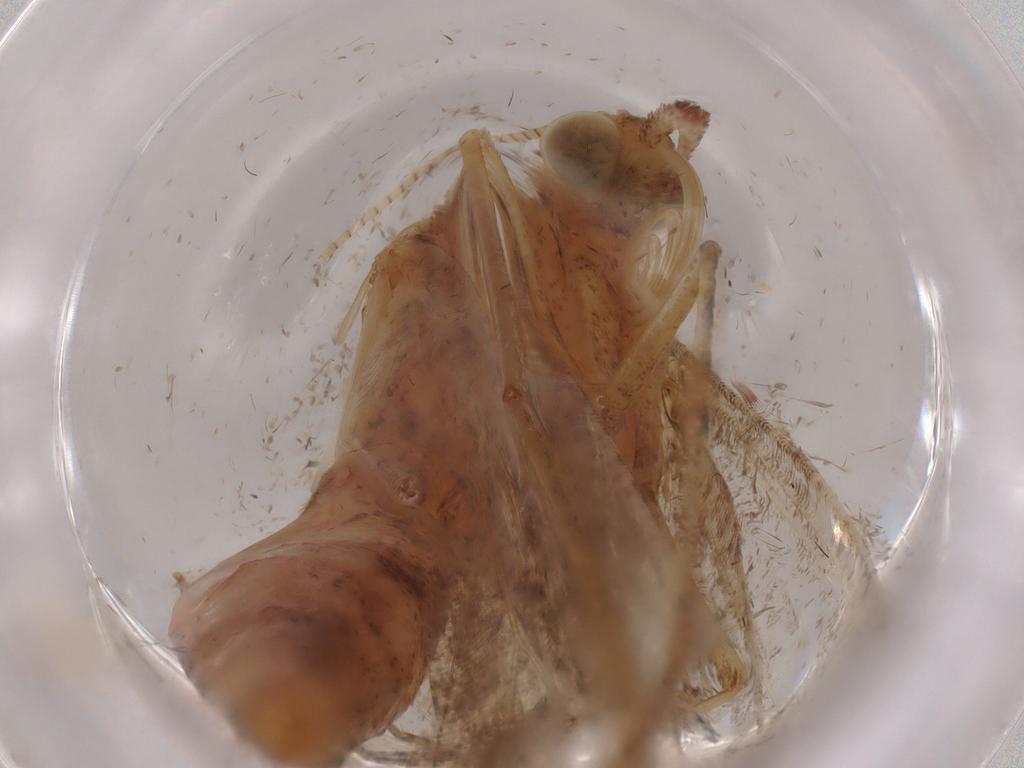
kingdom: Animalia
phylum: Arthropoda
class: Insecta
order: Lepidoptera
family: Geometridae
